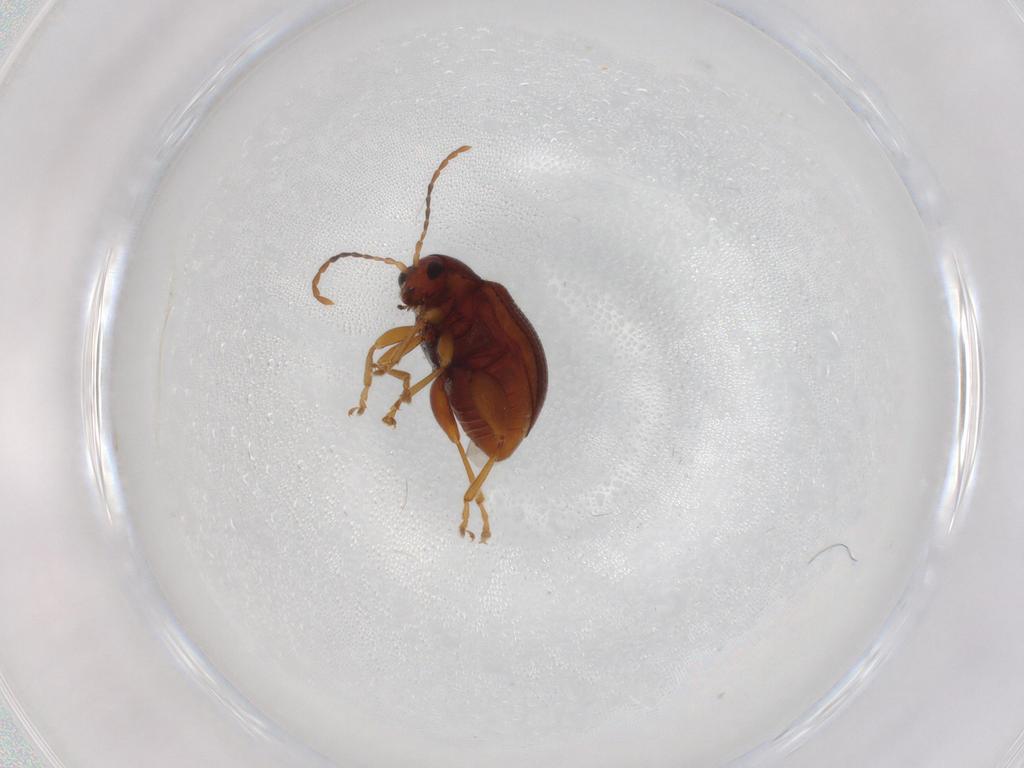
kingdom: Animalia
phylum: Arthropoda
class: Insecta
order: Coleoptera
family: Chrysomelidae
